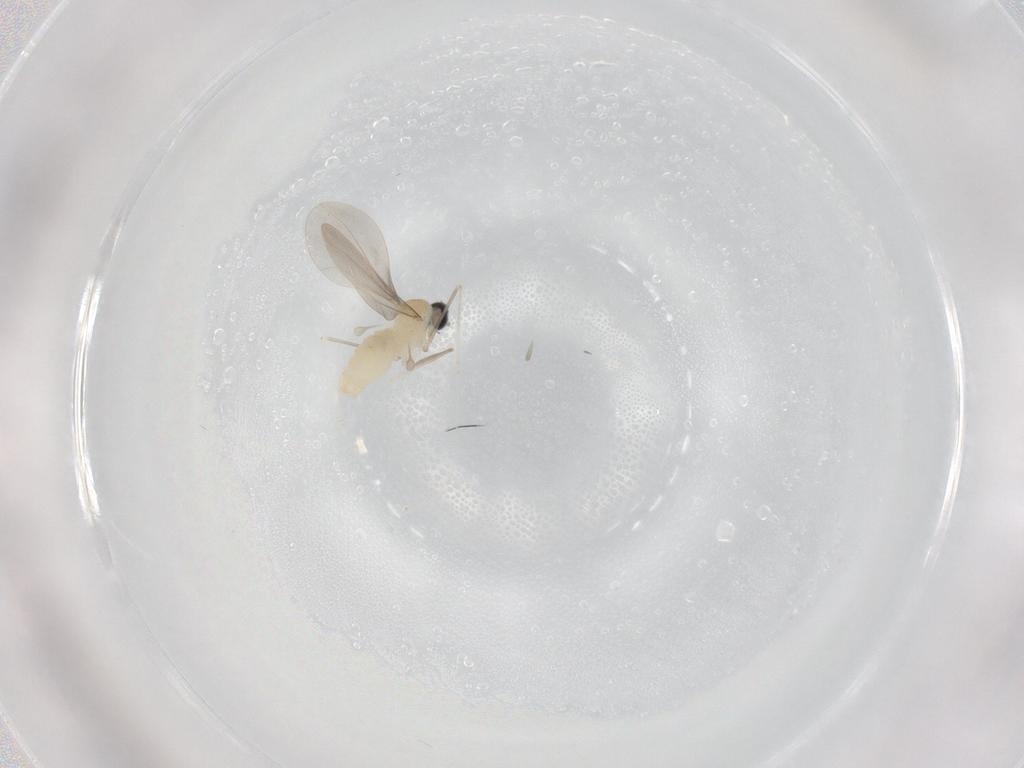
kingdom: Animalia
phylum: Arthropoda
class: Insecta
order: Diptera
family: Cecidomyiidae
